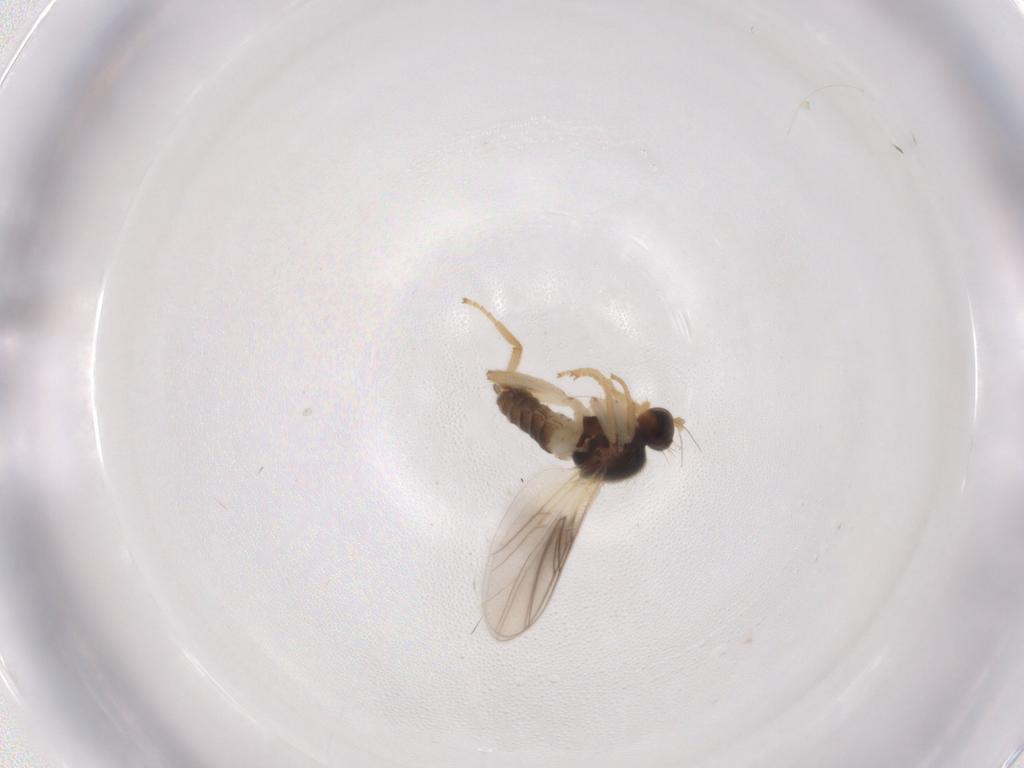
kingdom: Animalia
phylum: Arthropoda
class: Insecta
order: Diptera
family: Hybotidae
